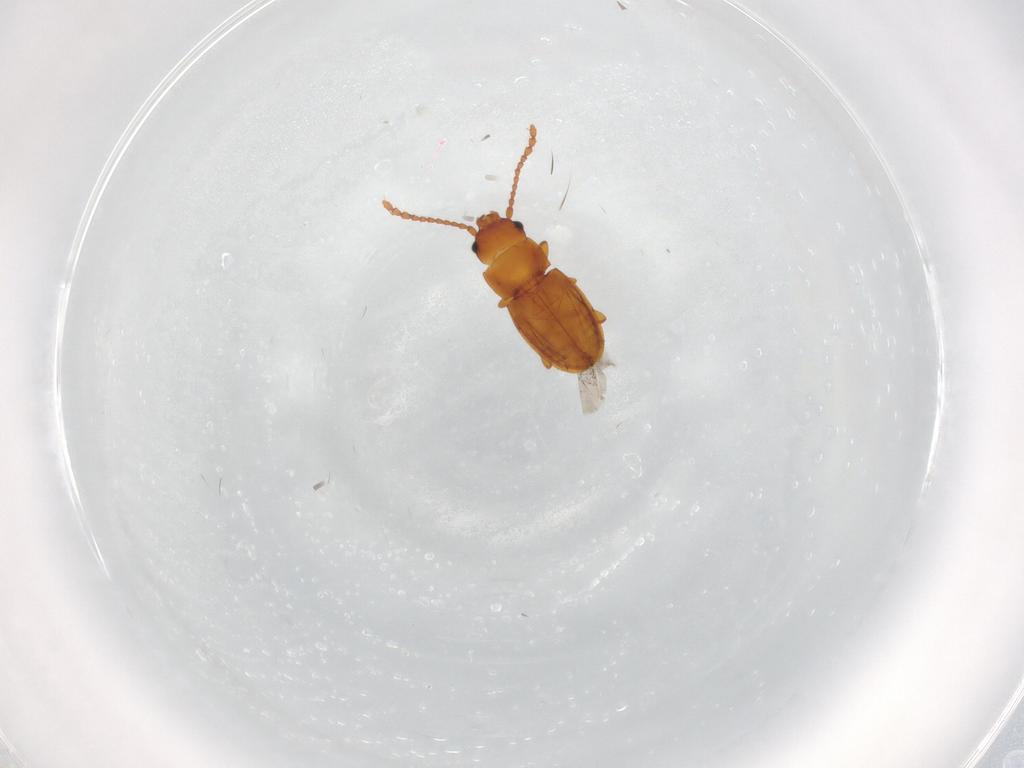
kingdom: Animalia
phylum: Arthropoda
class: Insecta
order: Coleoptera
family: Laemophloeidae
